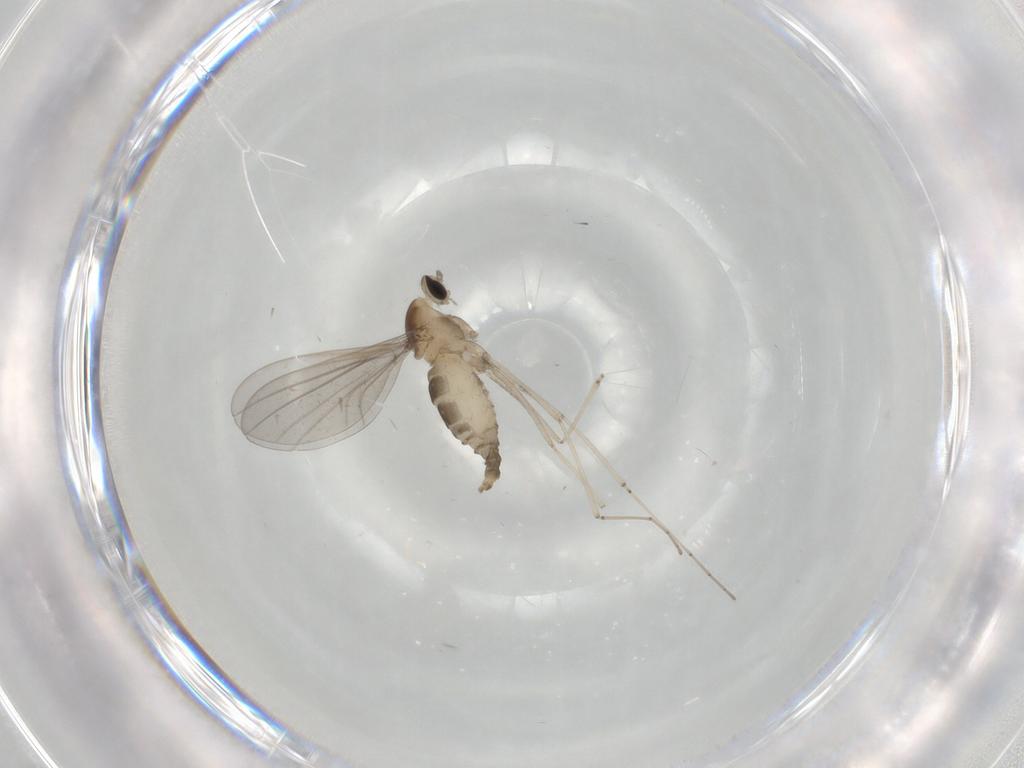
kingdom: Animalia
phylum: Arthropoda
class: Insecta
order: Diptera
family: Cecidomyiidae
